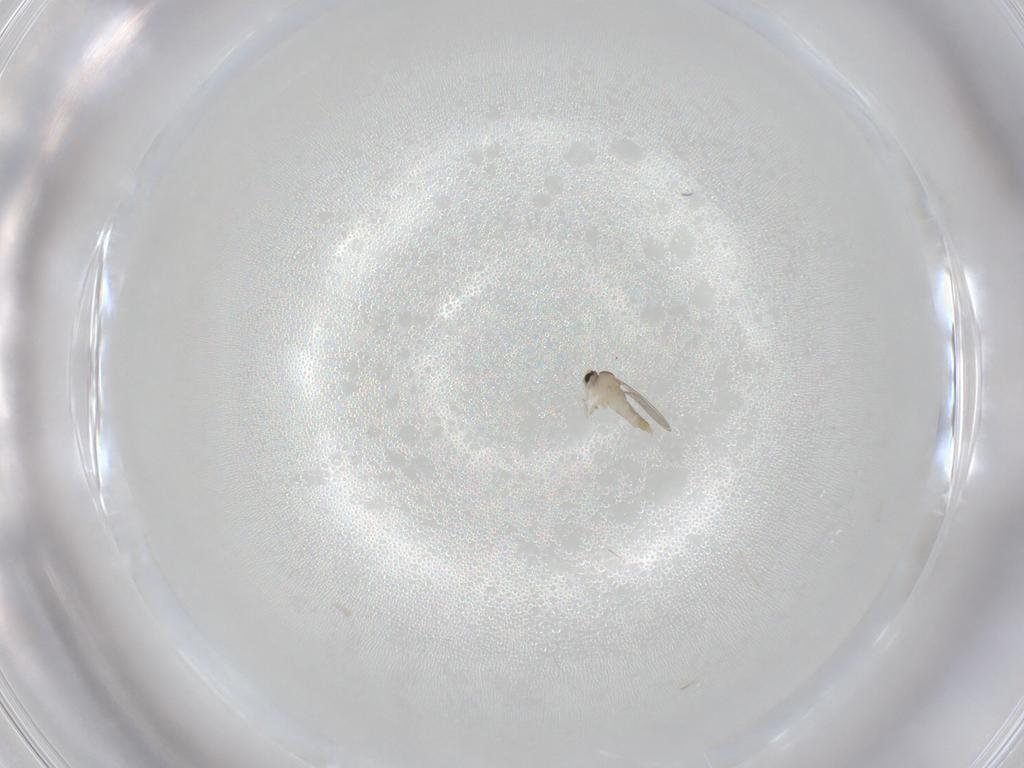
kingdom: Animalia
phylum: Arthropoda
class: Insecta
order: Diptera
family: Cecidomyiidae
